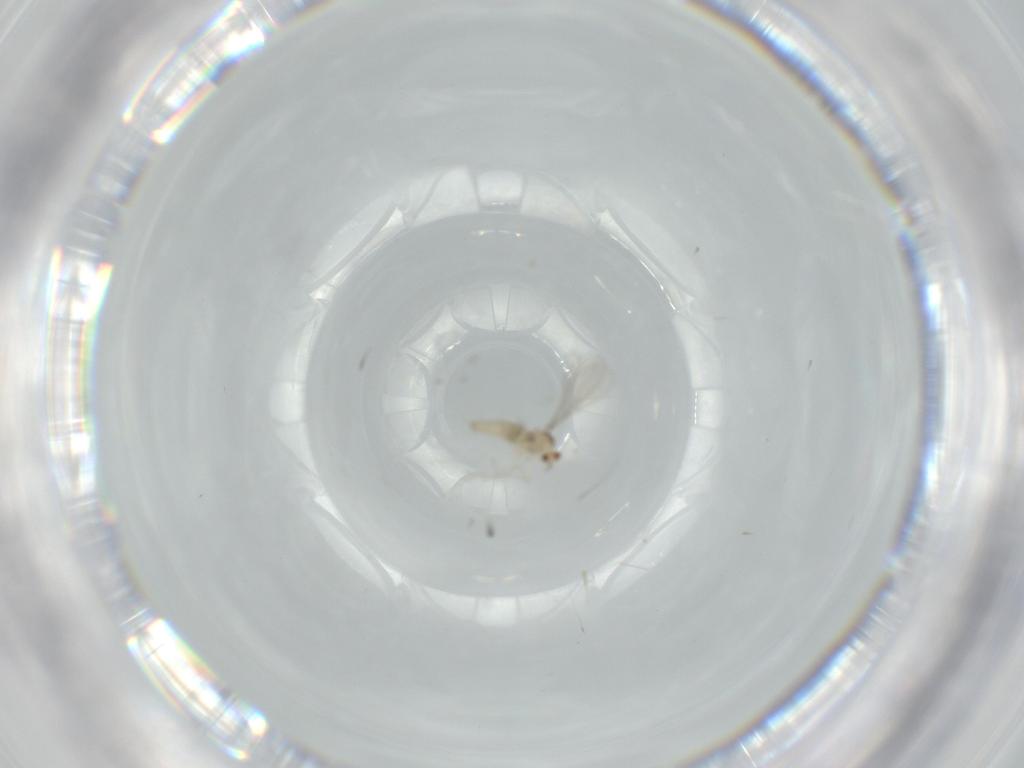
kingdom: Animalia
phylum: Arthropoda
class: Insecta
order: Diptera
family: Cecidomyiidae
